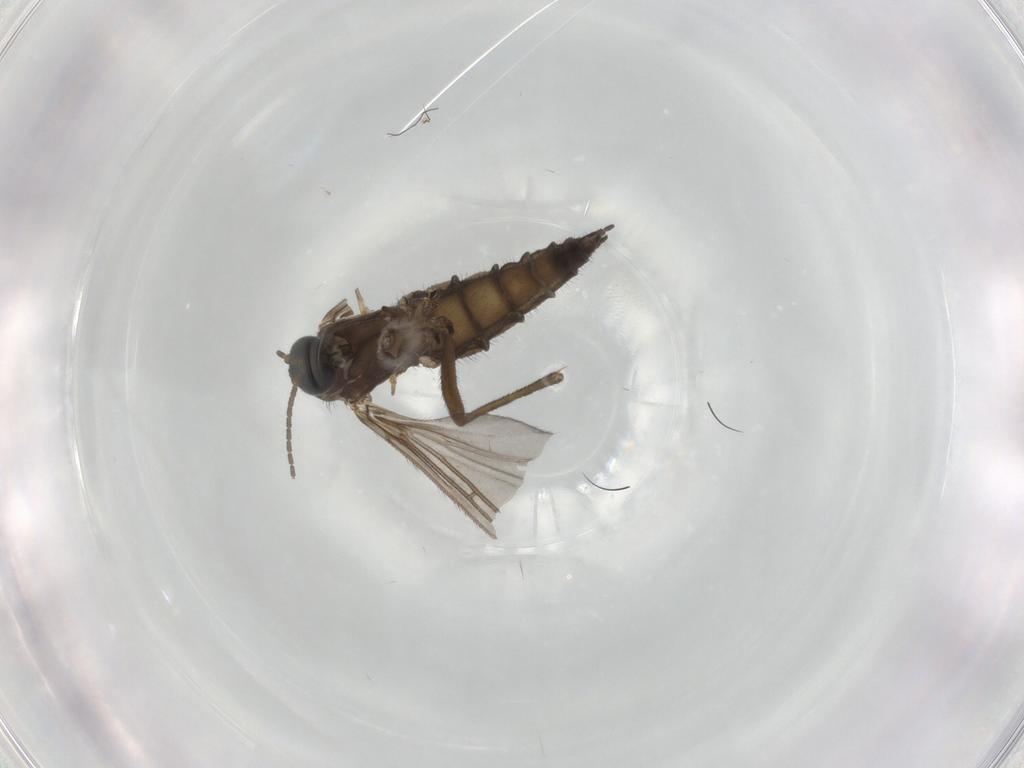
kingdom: Animalia
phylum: Arthropoda
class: Insecta
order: Diptera
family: Sciaridae
